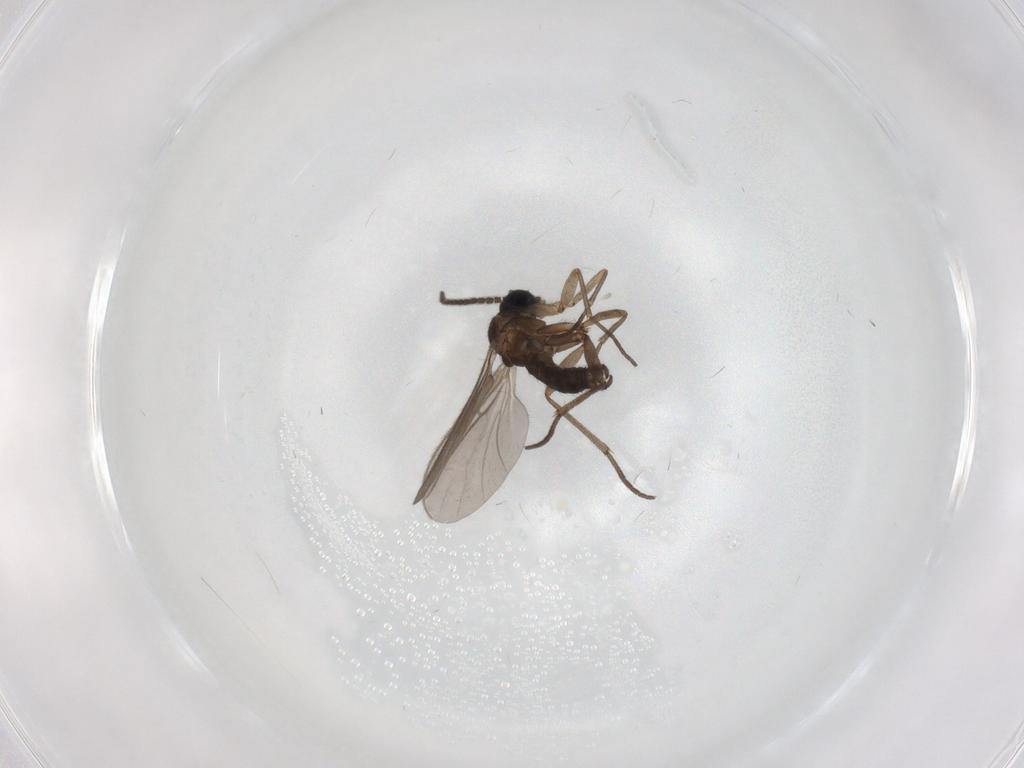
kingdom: Animalia
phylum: Arthropoda
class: Insecta
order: Diptera
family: Sciaridae
